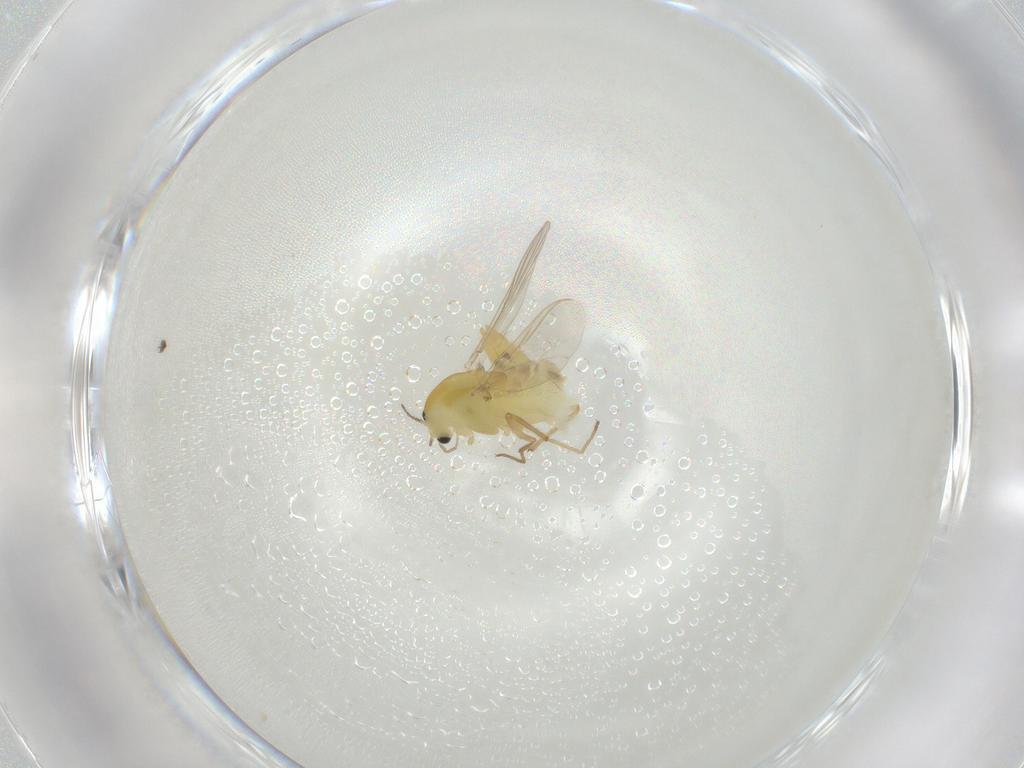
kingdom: Animalia
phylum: Arthropoda
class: Insecta
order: Diptera
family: Chironomidae
